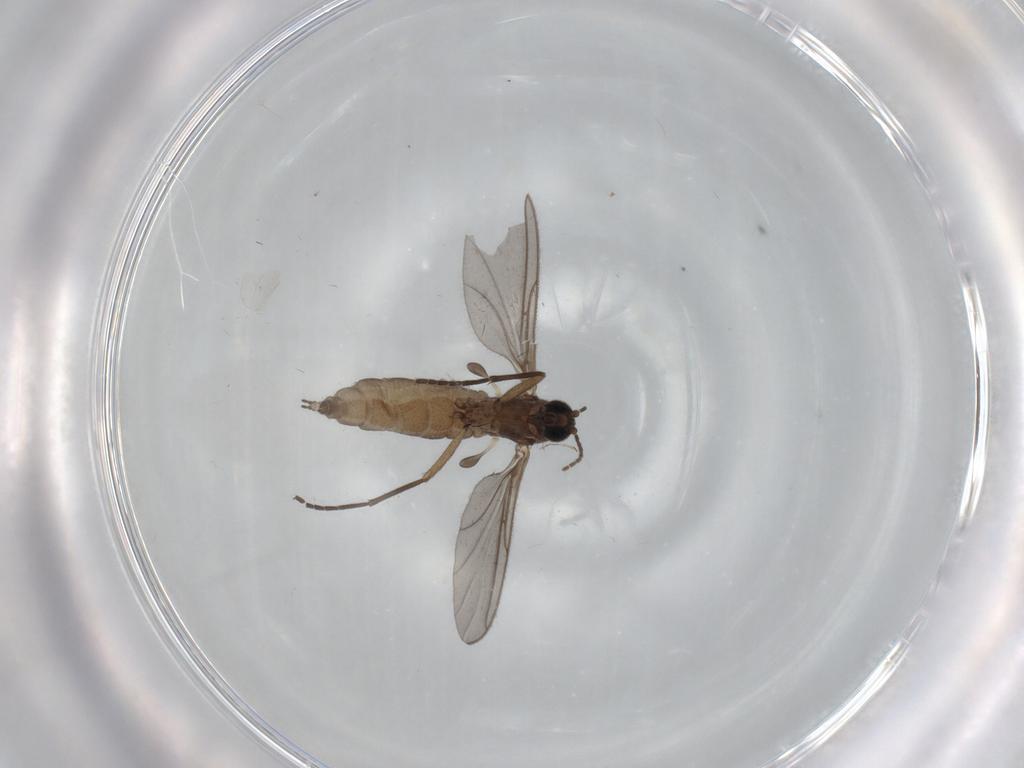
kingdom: Animalia
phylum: Arthropoda
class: Insecta
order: Diptera
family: Sciaridae
